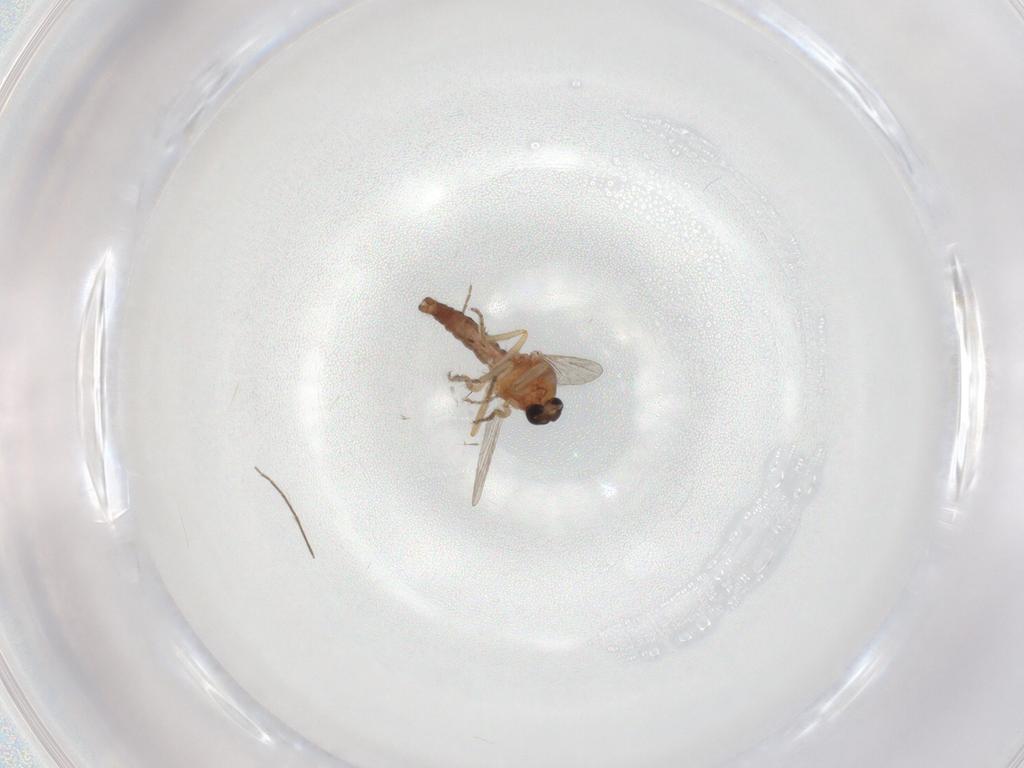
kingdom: Animalia
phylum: Arthropoda
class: Insecta
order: Diptera
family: Ceratopogonidae
